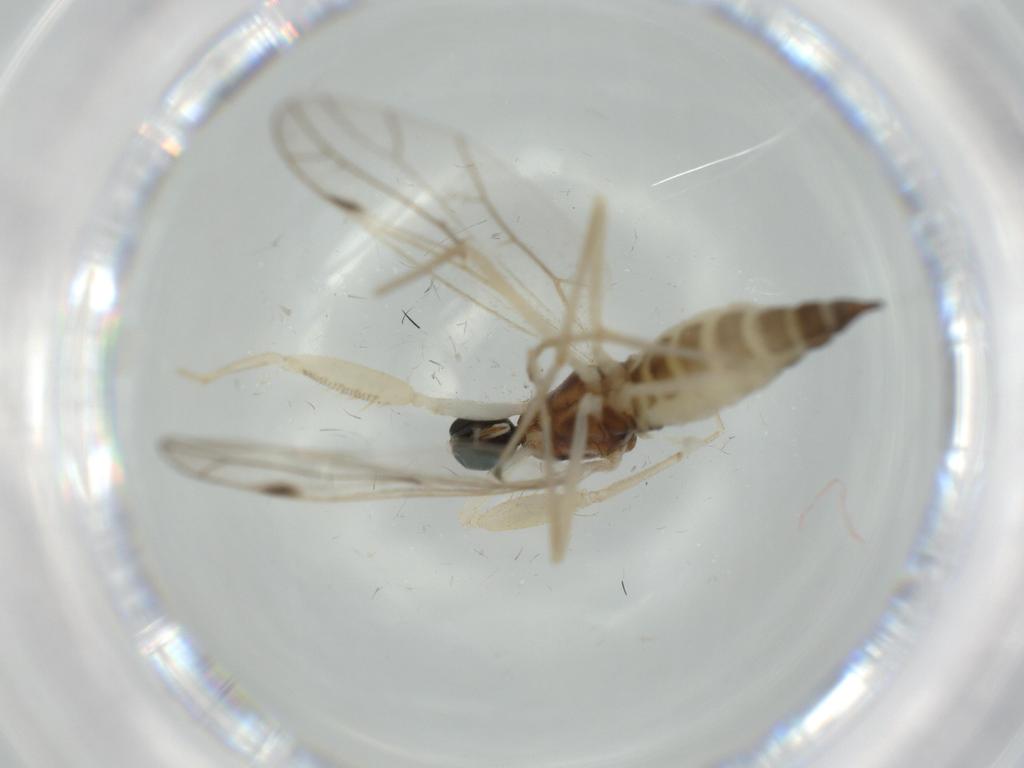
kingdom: Animalia
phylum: Arthropoda
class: Insecta
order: Diptera
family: Empididae
